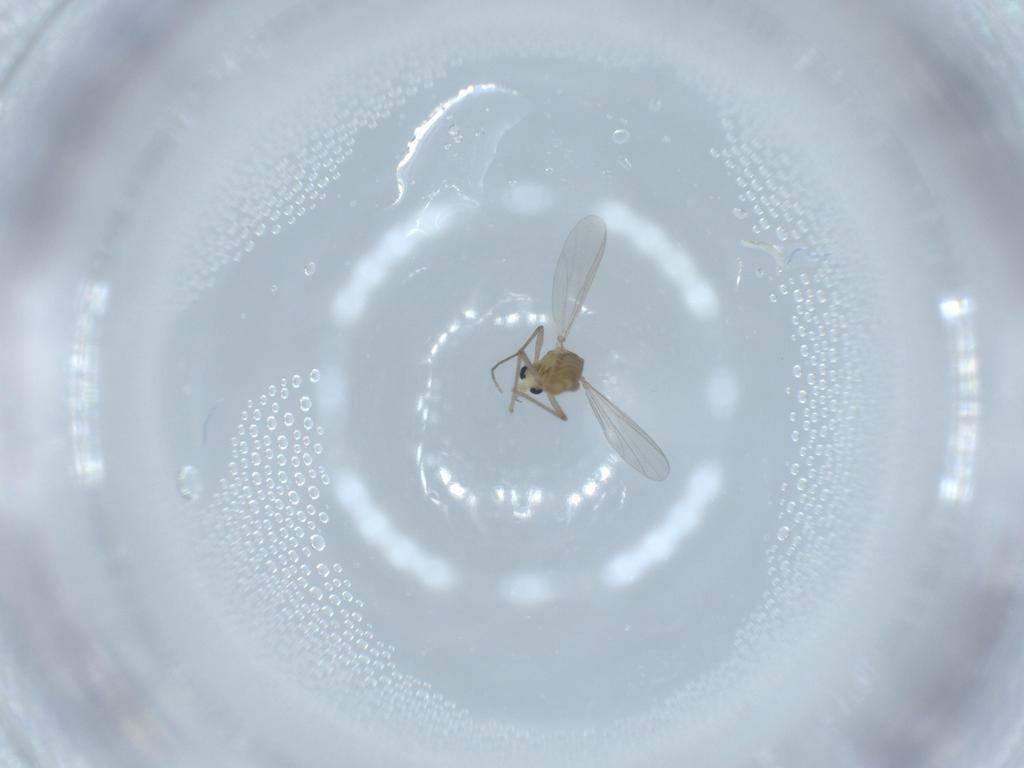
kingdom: Animalia
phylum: Arthropoda
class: Insecta
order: Diptera
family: Chironomidae
